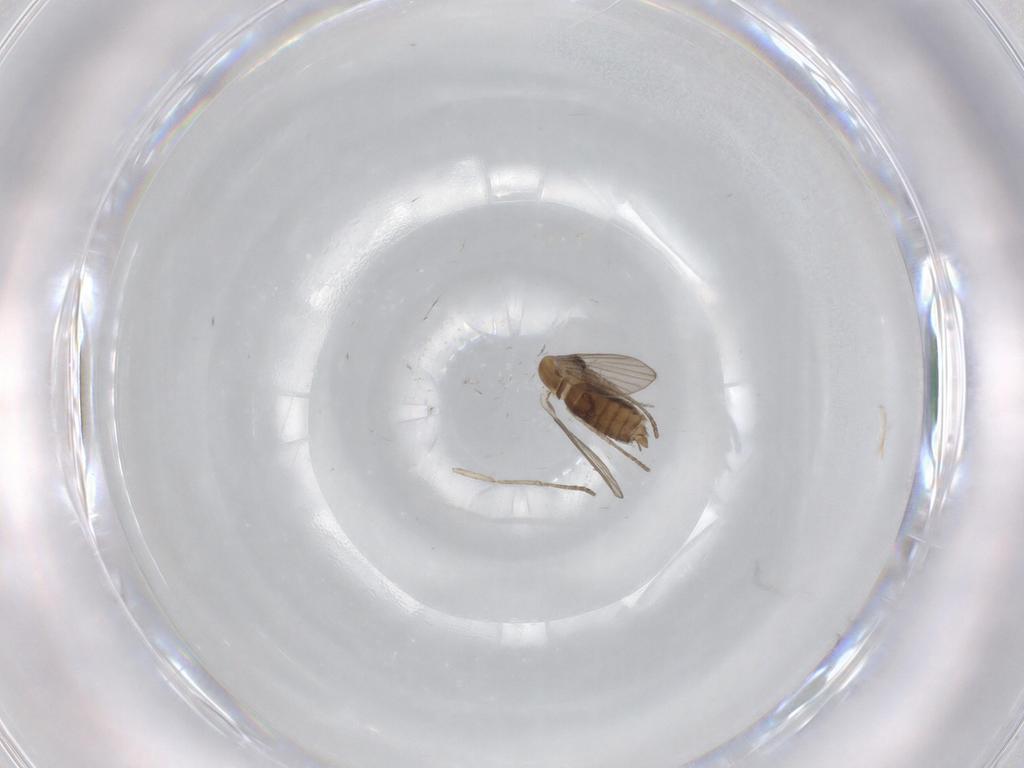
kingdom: Animalia
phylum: Arthropoda
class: Insecta
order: Diptera
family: Psychodidae
